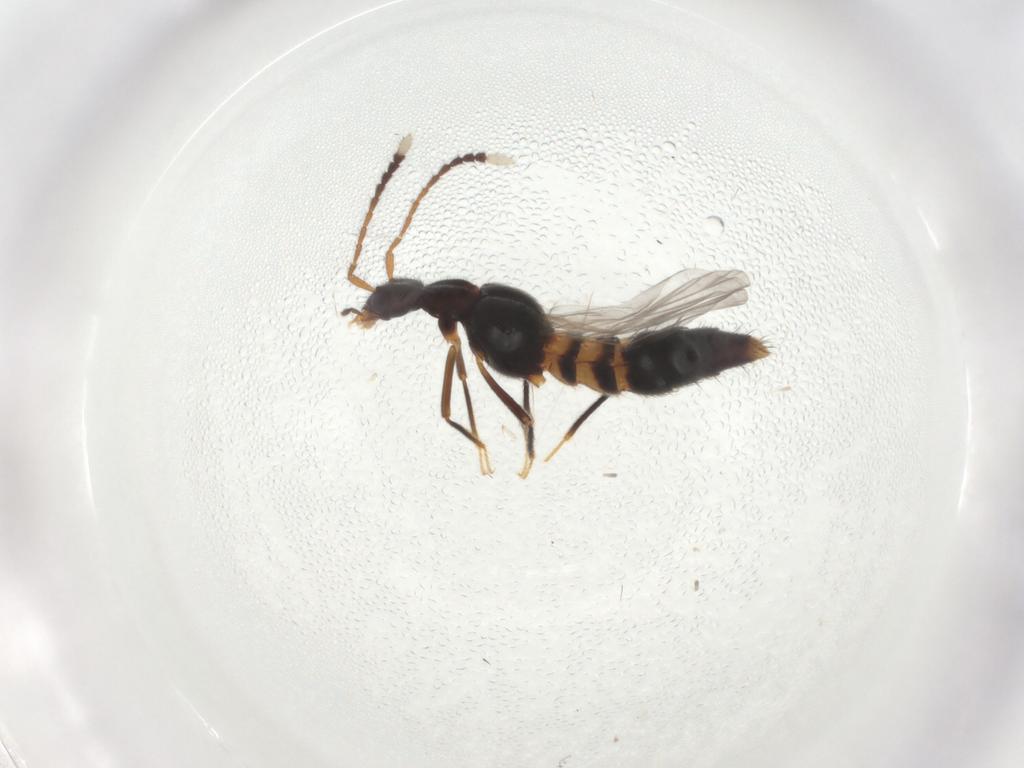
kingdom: Animalia
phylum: Arthropoda
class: Insecta
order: Coleoptera
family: Staphylinidae
